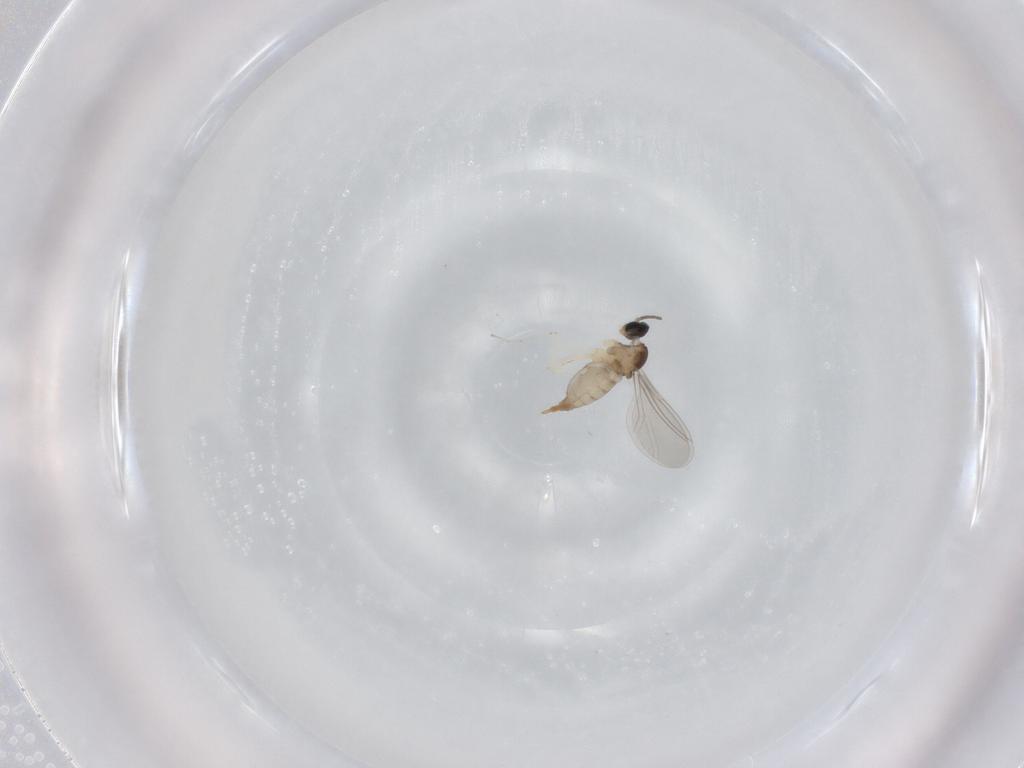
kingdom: Animalia
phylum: Arthropoda
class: Insecta
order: Diptera
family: Cecidomyiidae
